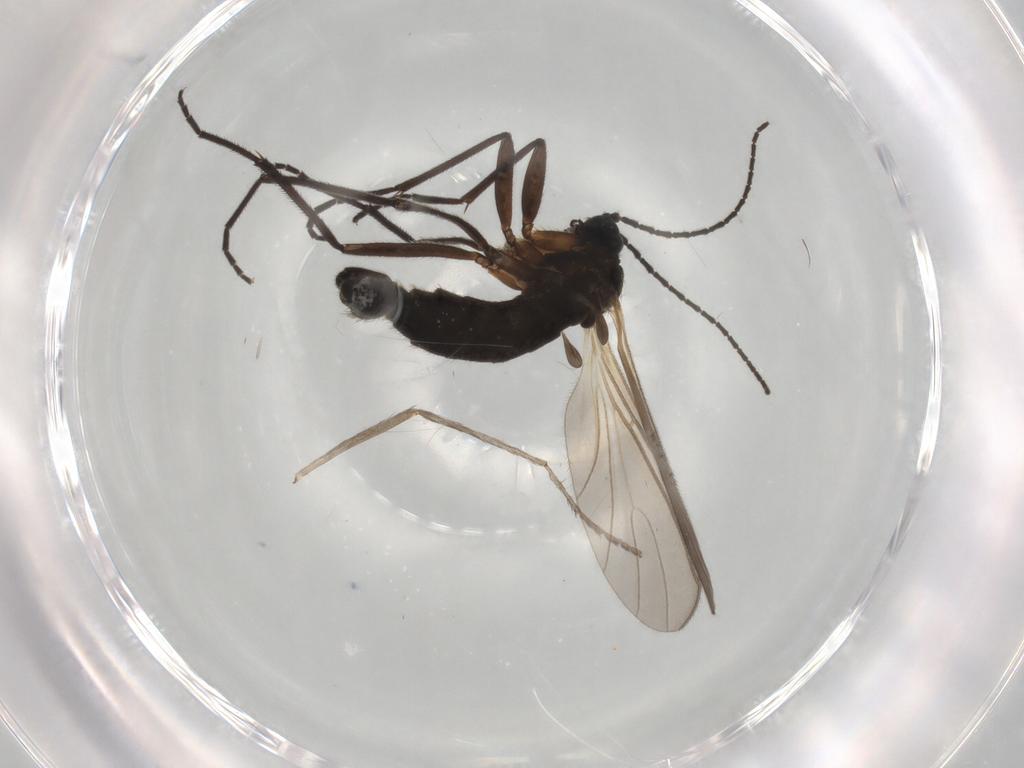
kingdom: Animalia
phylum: Arthropoda
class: Insecta
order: Diptera
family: Limoniidae
